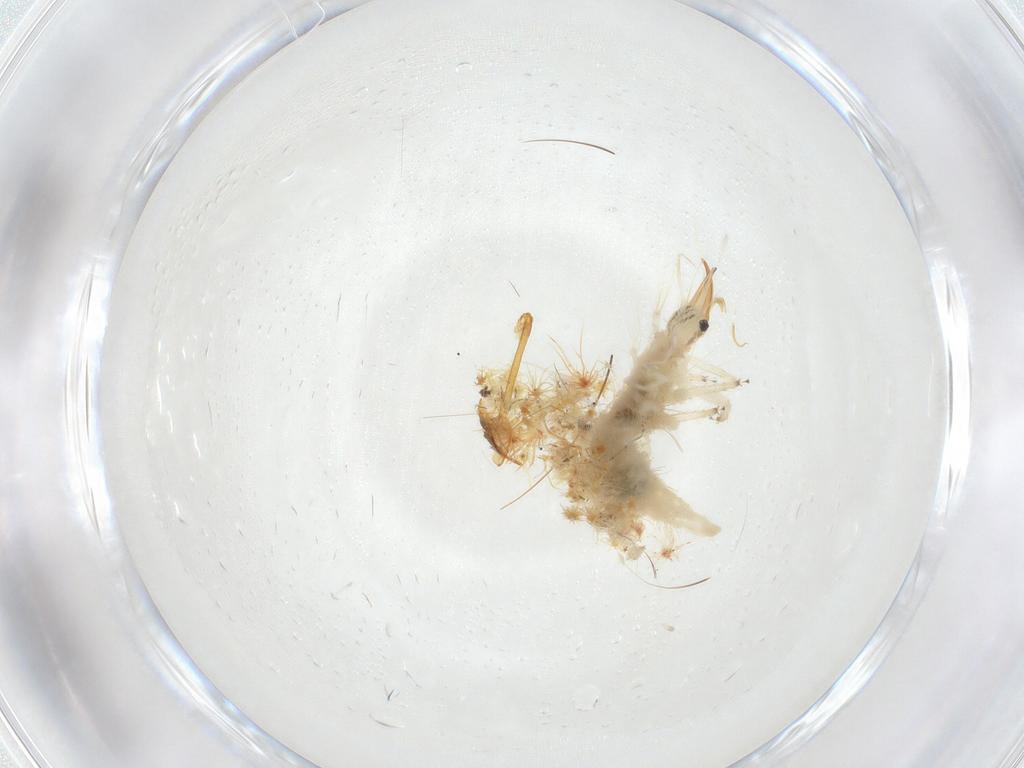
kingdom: Animalia
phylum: Arthropoda
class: Insecta
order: Neuroptera
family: Chrysopidae
